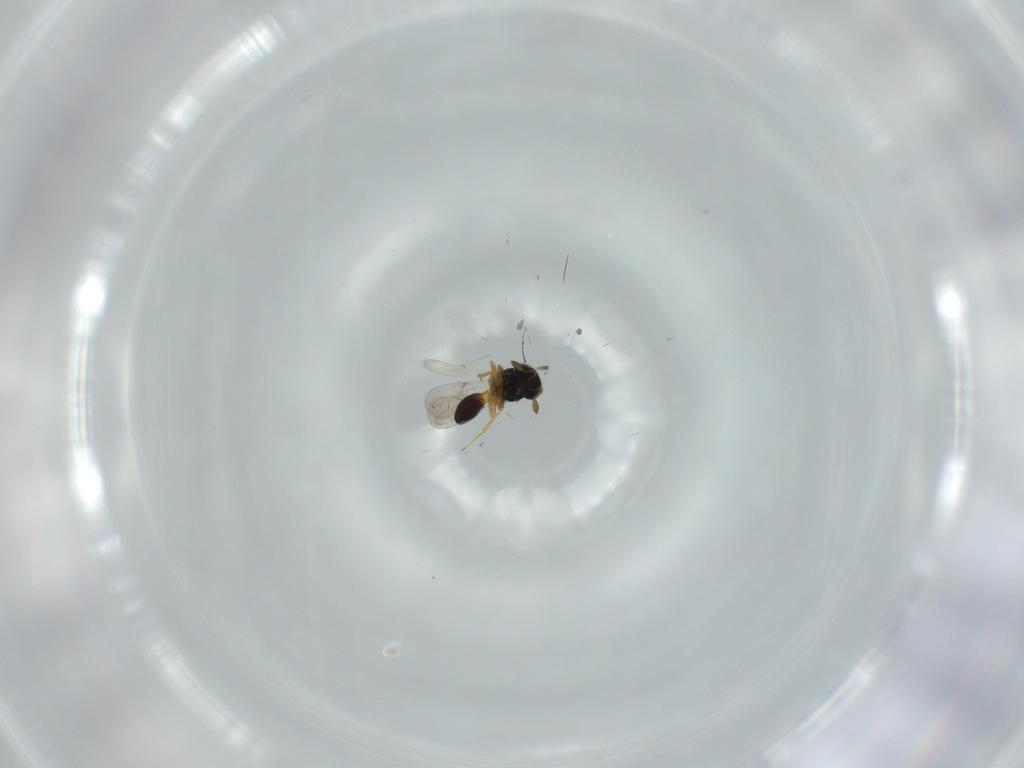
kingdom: Animalia
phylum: Arthropoda
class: Insecta
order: Hymenoptera
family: Scelionidae
